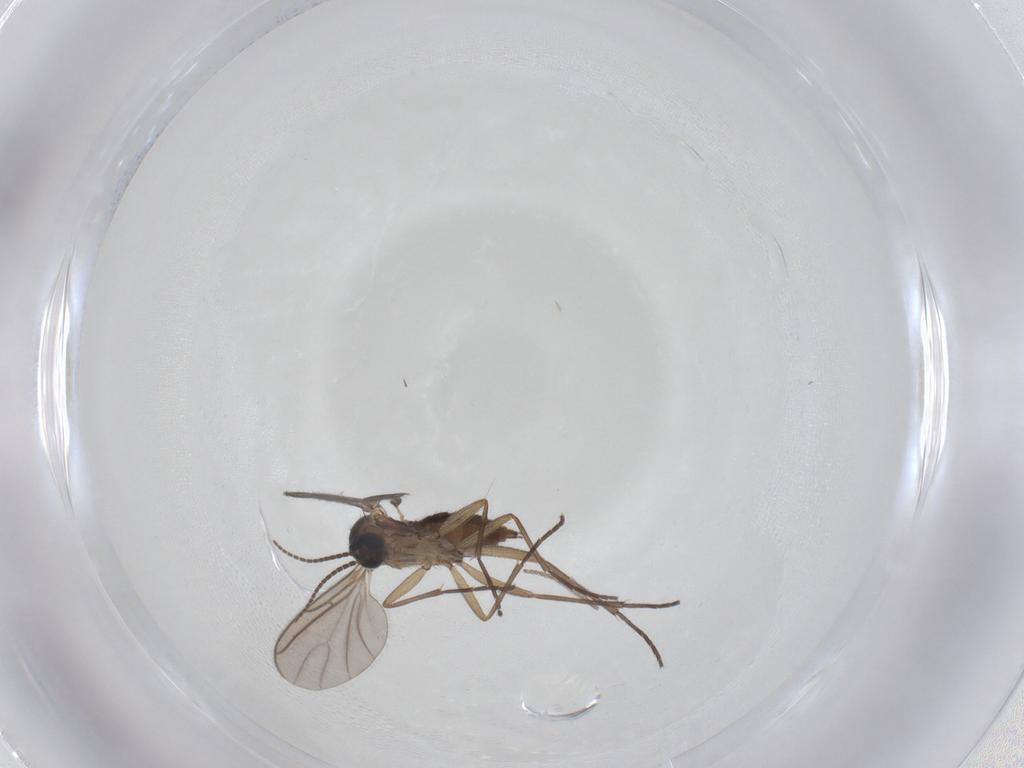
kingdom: Animalia
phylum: Arthropoda
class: Insecta
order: Diptera
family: Sciaridae
